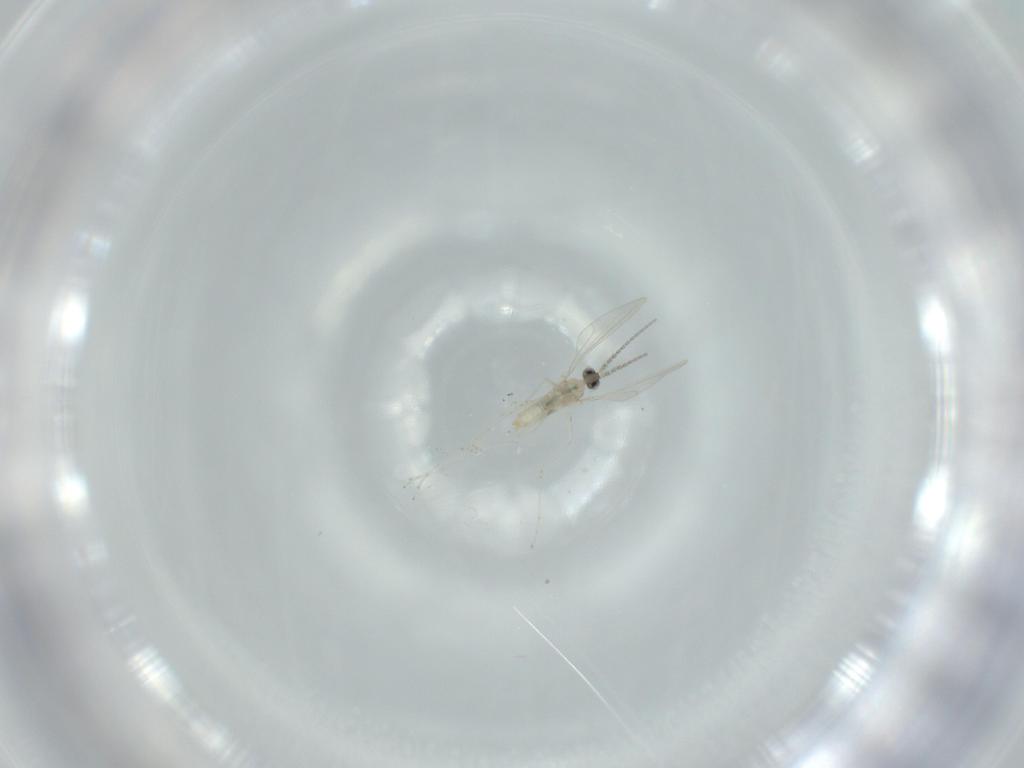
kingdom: Animalia
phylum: Arthropoda
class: Insecta
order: Diptera
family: Cecidomyiidae
